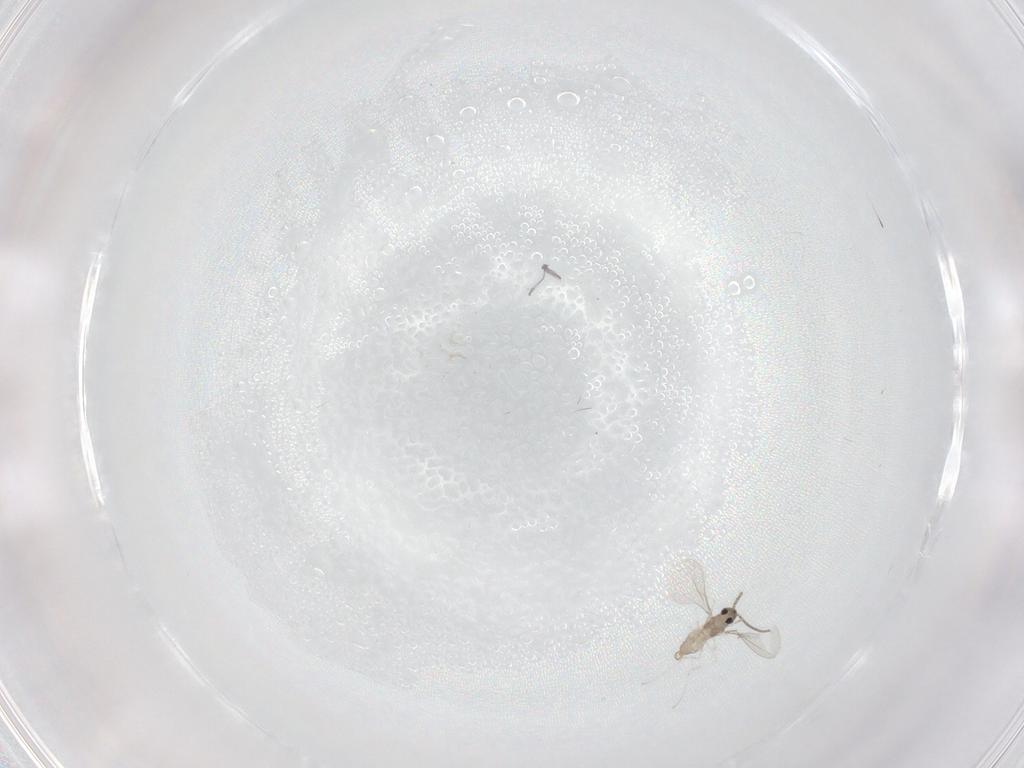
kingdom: Animalia
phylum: Arthropoda
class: Insecta
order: Diptera
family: Cecidomyiidae
